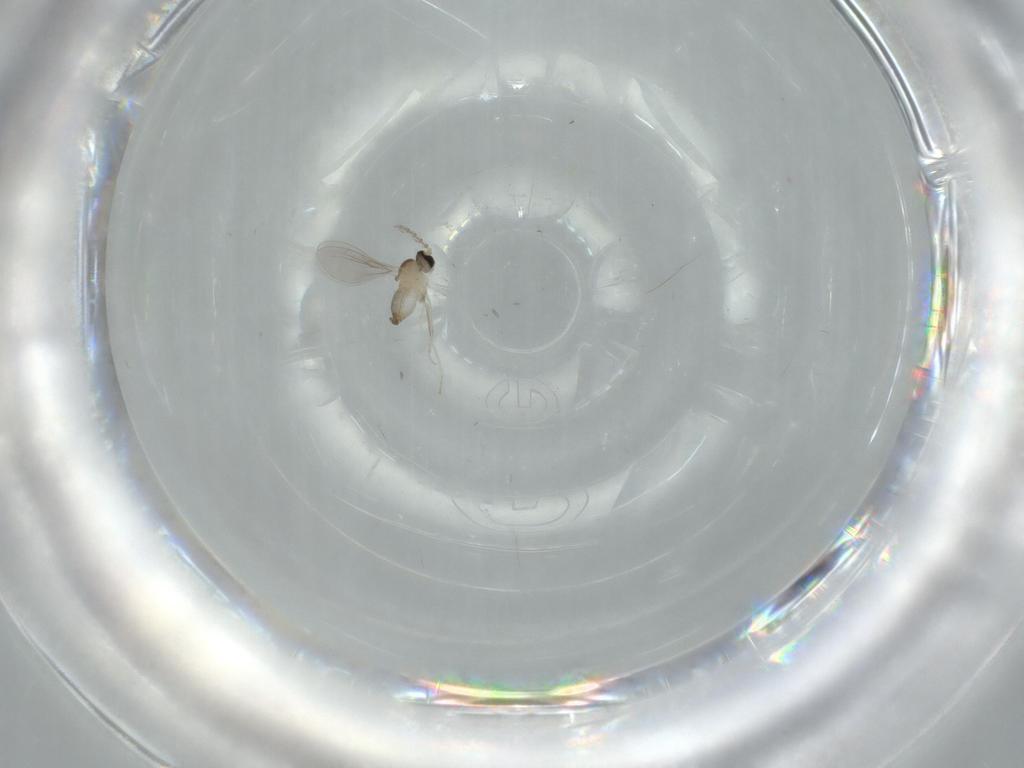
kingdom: Animalia
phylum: Arthropoda
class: Insecta
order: Diptera
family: Cecidomyiidae
